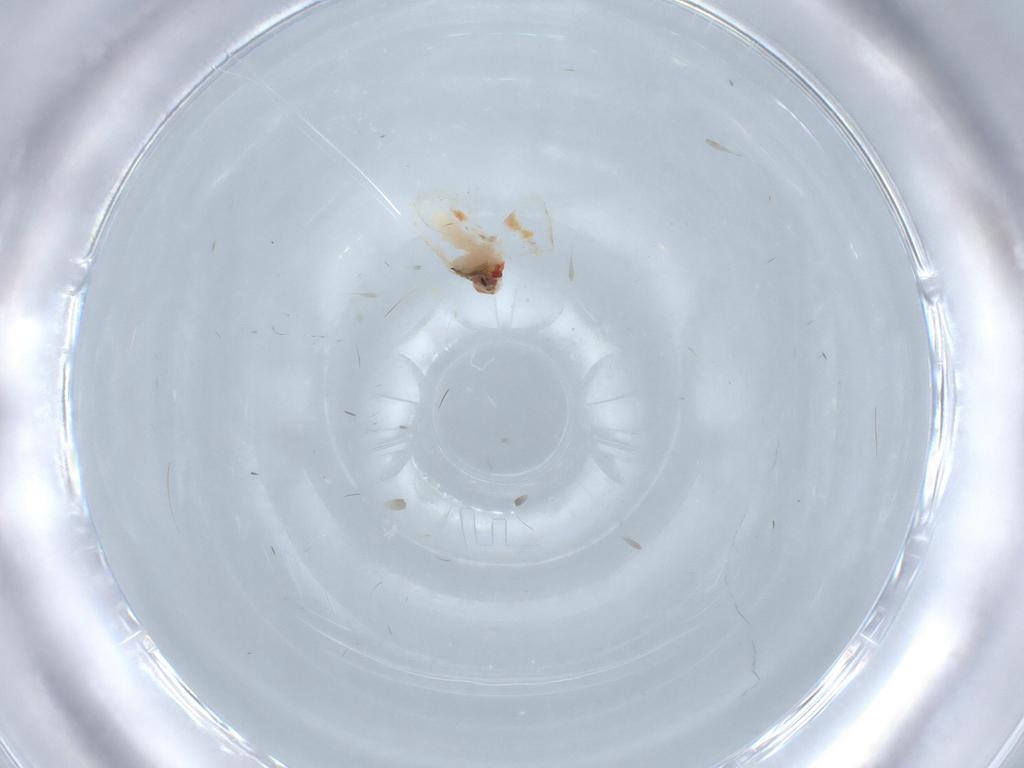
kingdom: Animalia
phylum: Arthropoda
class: Insecta
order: Hemiptera
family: Aleyrodidae
